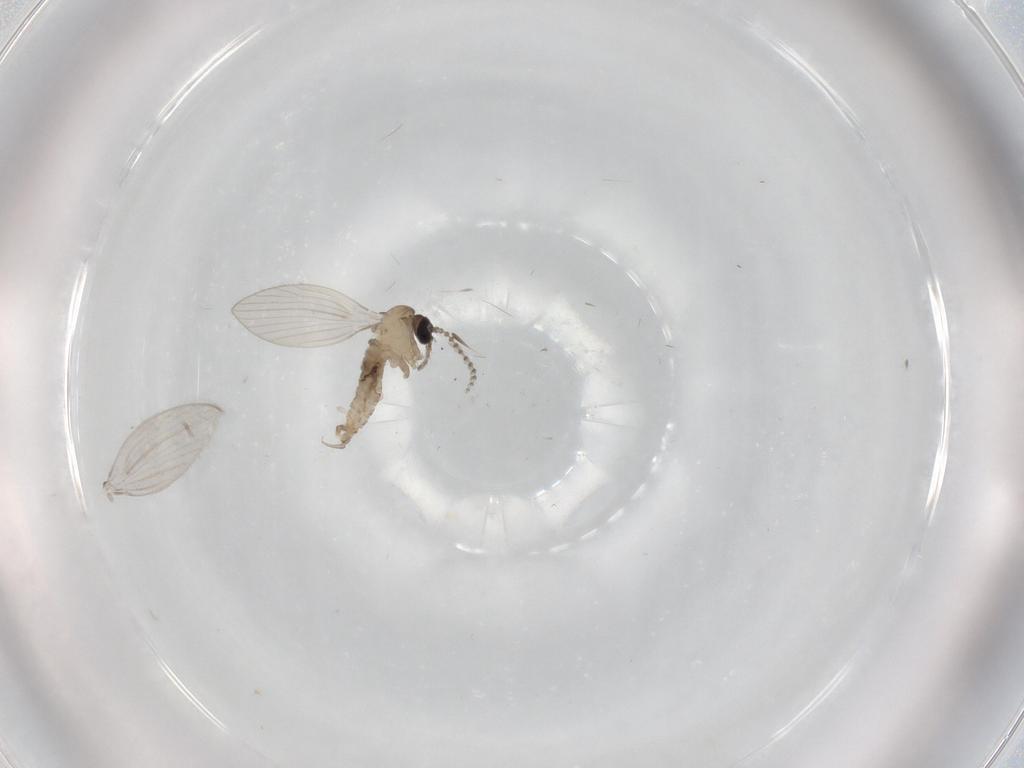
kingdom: Animalia
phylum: Arthropoda
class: Insecta
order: Diptera
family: Psychodidae
